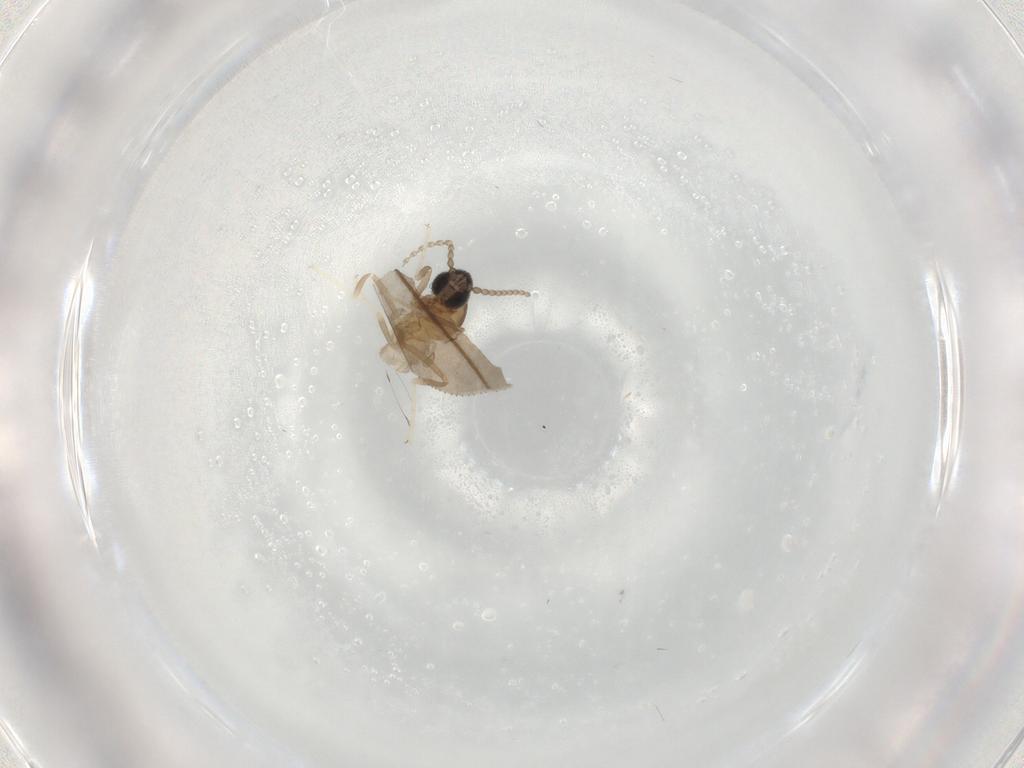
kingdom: Animalia
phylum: Arthropoda
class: Insecta
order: Diptera
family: Cecidomyiidae
